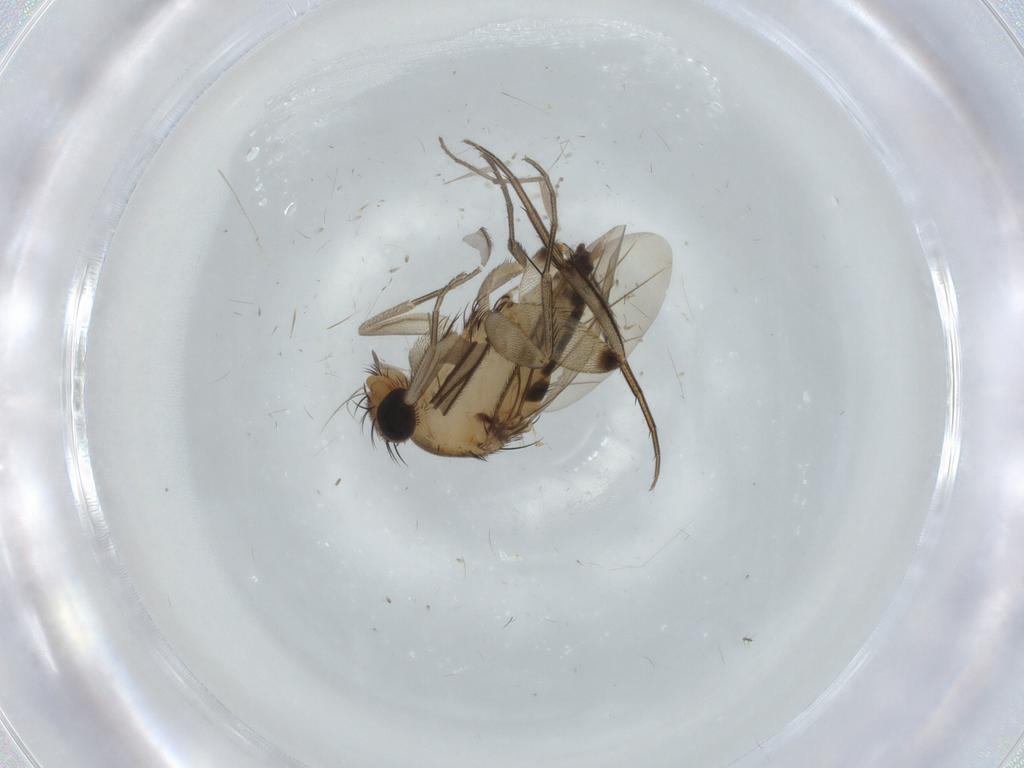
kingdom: Animalia
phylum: Arthropoda
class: Insecta
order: Diptera
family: Phoridae
